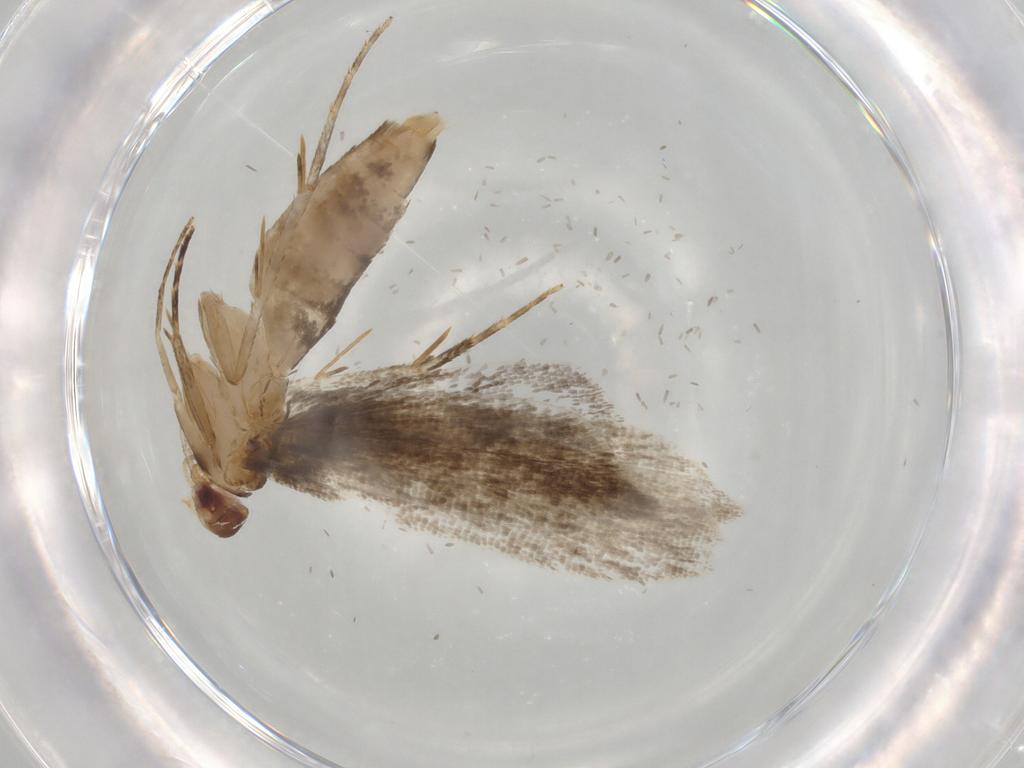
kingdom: Animalia
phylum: Arthropoda
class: Insecta
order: Lepidoptera
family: Gelechiidae
